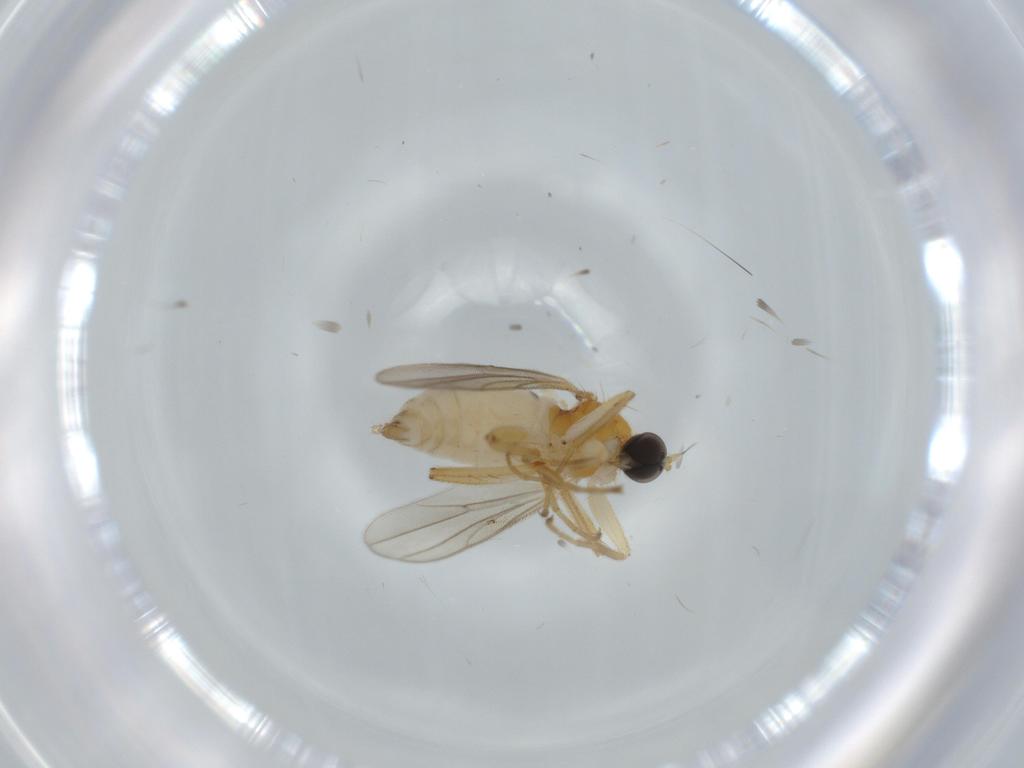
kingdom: Animalia
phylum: Arthropoda
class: Insecta
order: Diptera
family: Hybotidae
